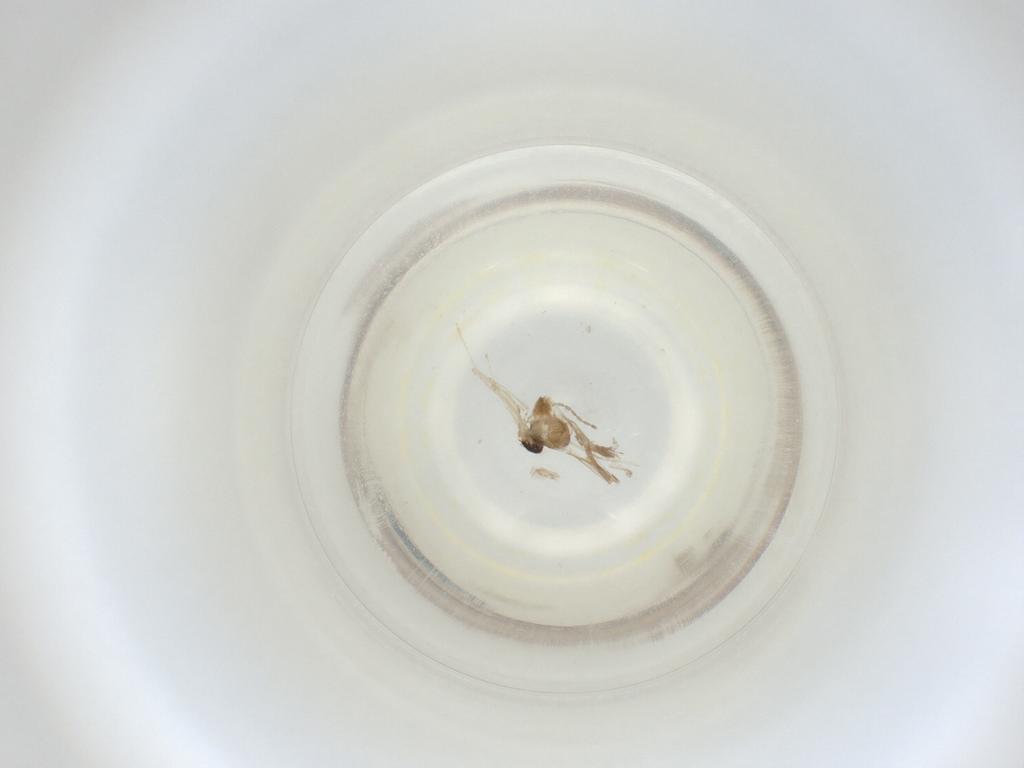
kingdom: Animalia
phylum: Arthropoda
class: Insecta
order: Diptera
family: Cecidomyiidae
